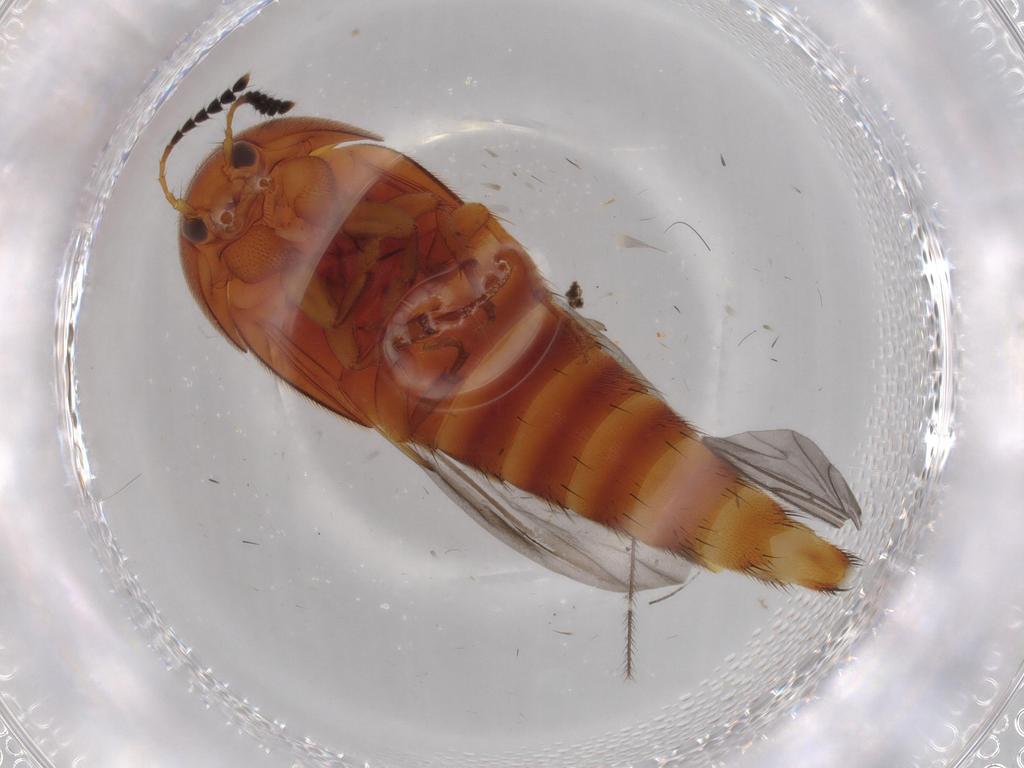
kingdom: Animalia
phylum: Arthropoda
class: Insecta
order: Coleoptera
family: Staphylinidae
